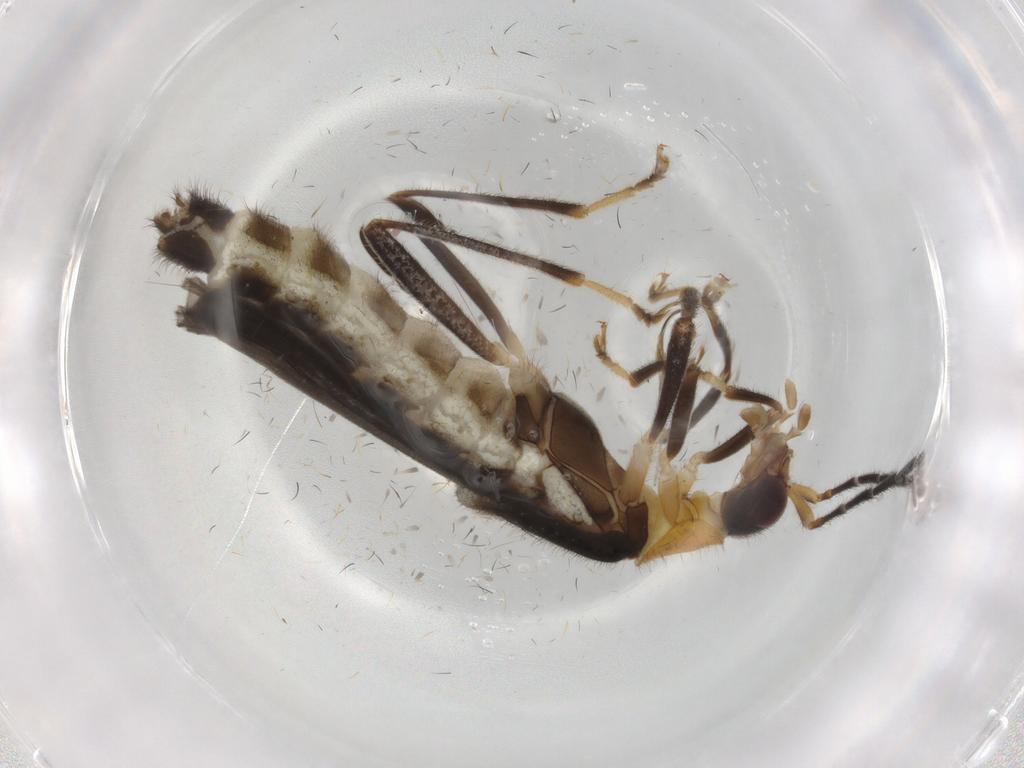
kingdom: Animalia
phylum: Arthropoda
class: Insecta
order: Coleoptera
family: Cantharidae
